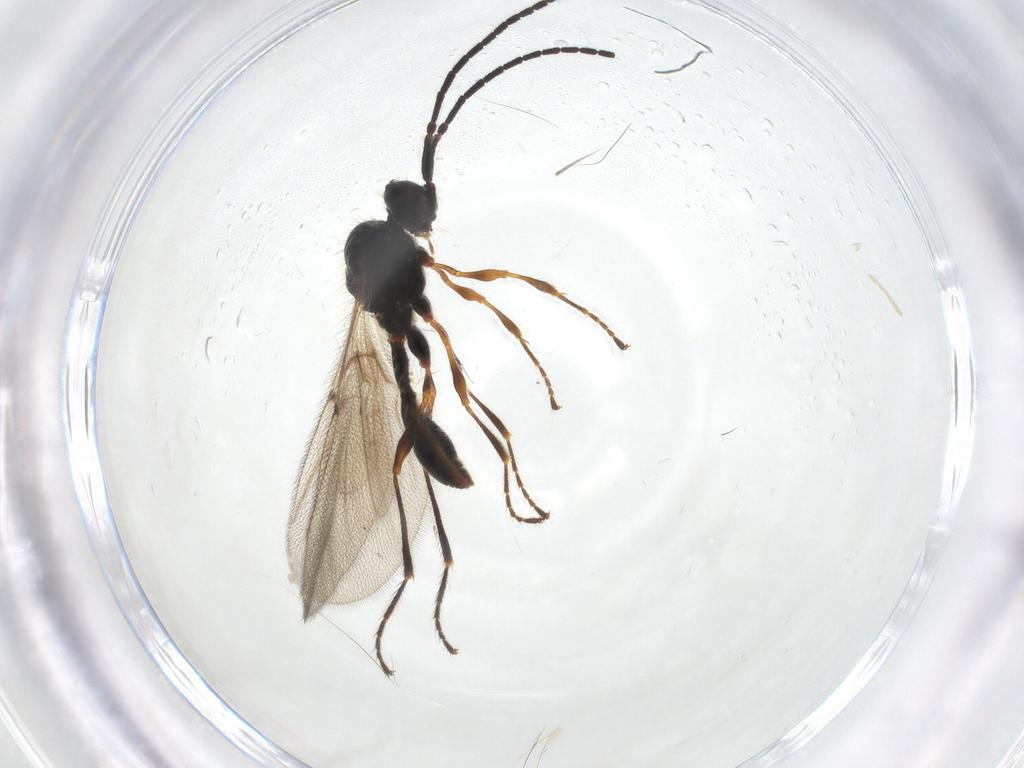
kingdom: Animalia
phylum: Arthropoda
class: Insecta
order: Hymenoptera
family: Diapriidae
